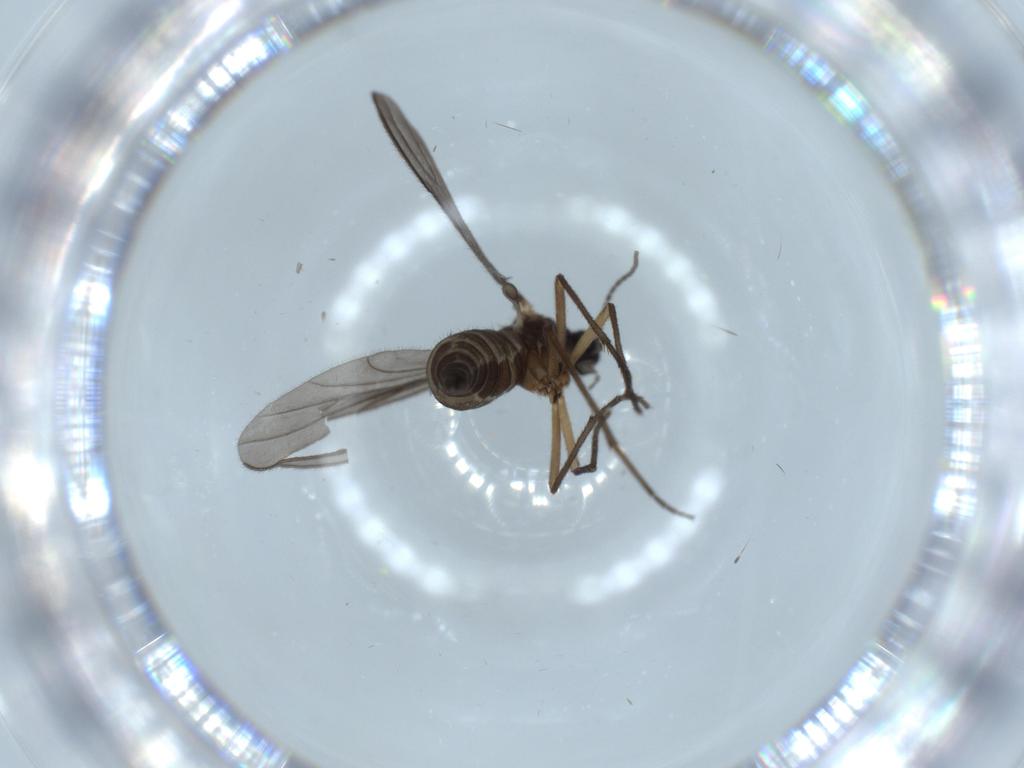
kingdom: Animalia
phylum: Arthropoda
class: Insecta
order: Diptera
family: Sciaridae
